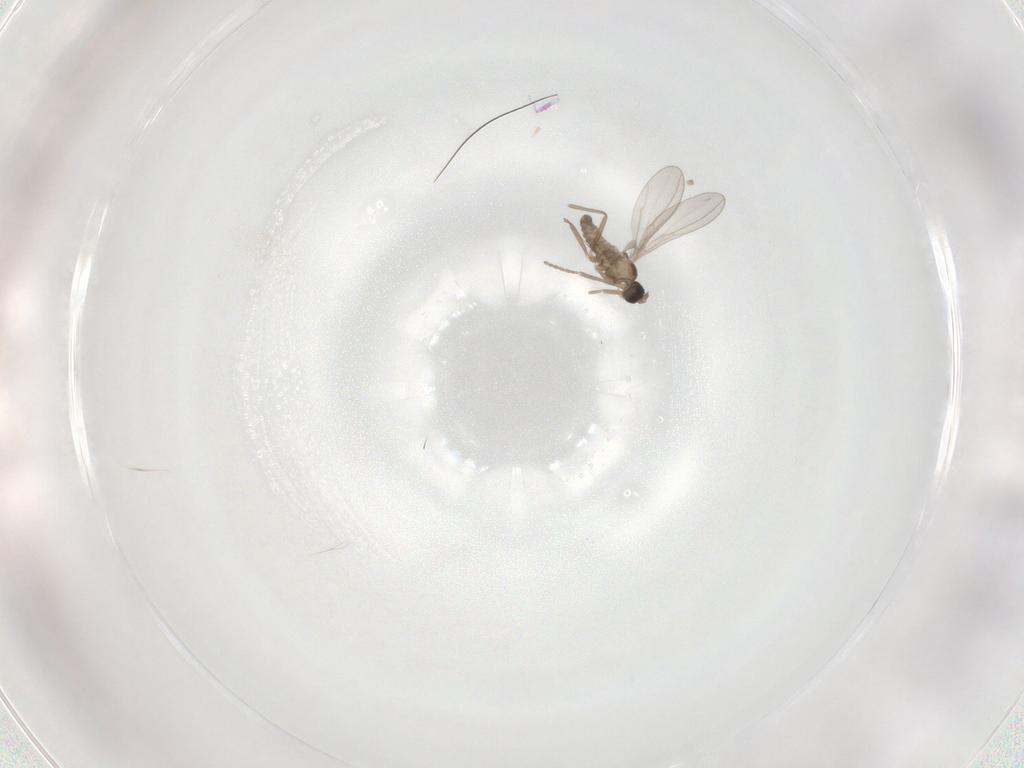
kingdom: Animalia
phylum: Arthropoda
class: Insecta
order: Diptera
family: Cecidomyiidae
